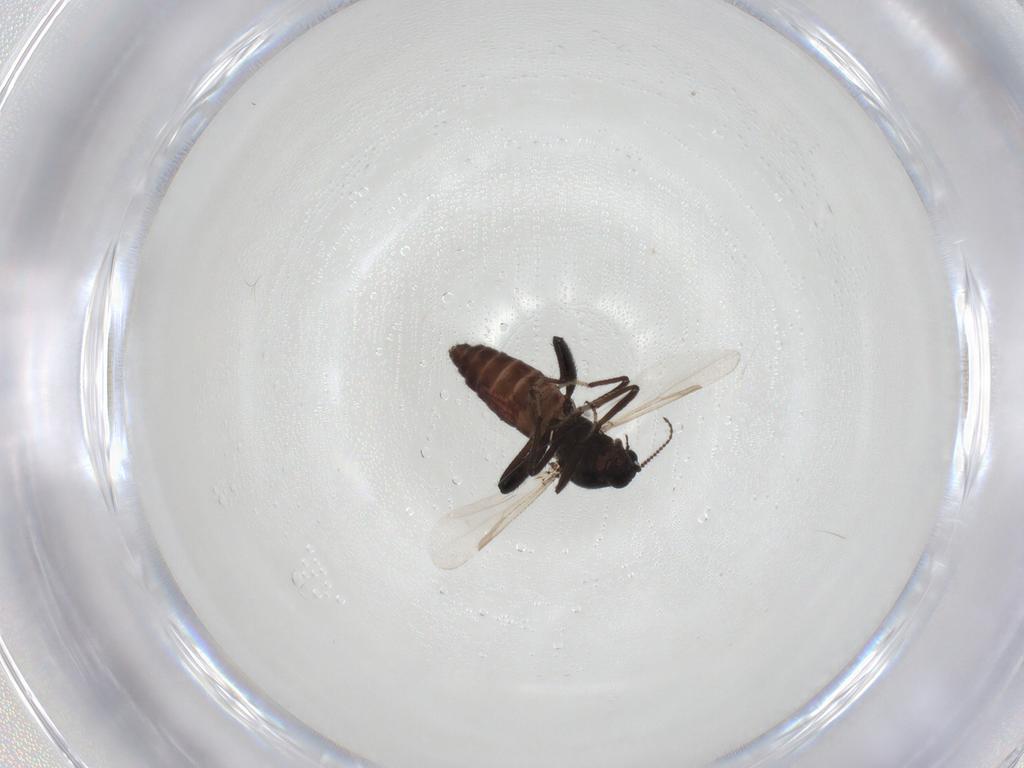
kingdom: Animalia
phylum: Arthropoda
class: Insecta
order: Diptera
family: Ceratopogonidae
